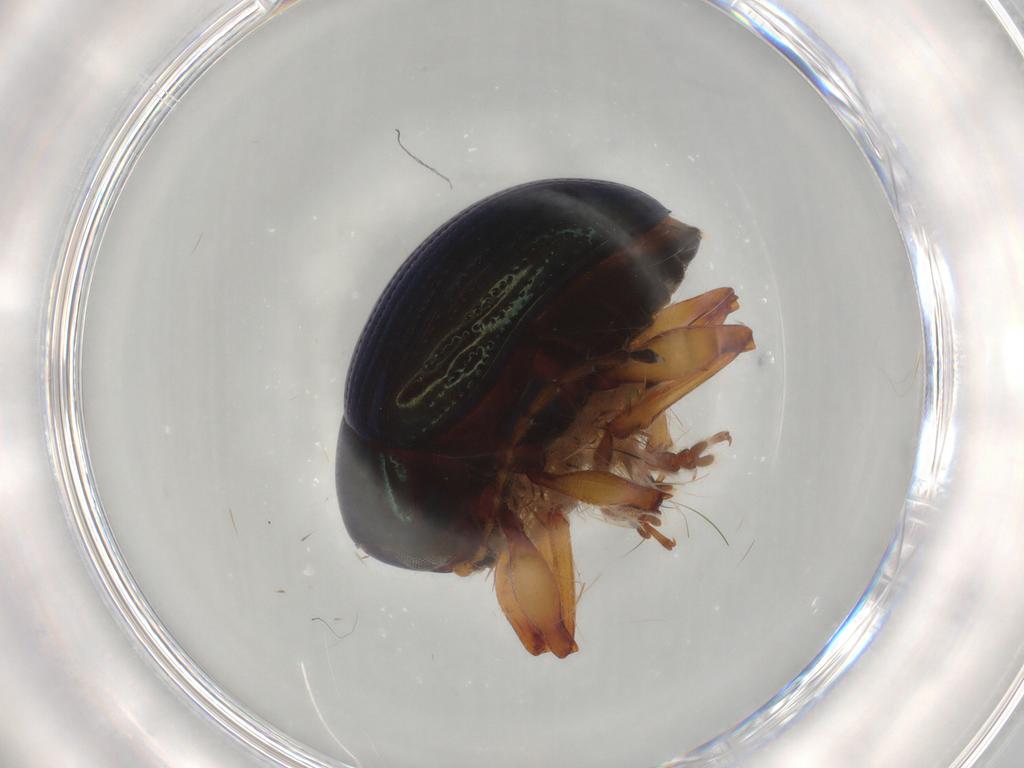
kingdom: Animalia
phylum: Arthropoda
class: Insecta
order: Coleoptera
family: Chrysomelidae
